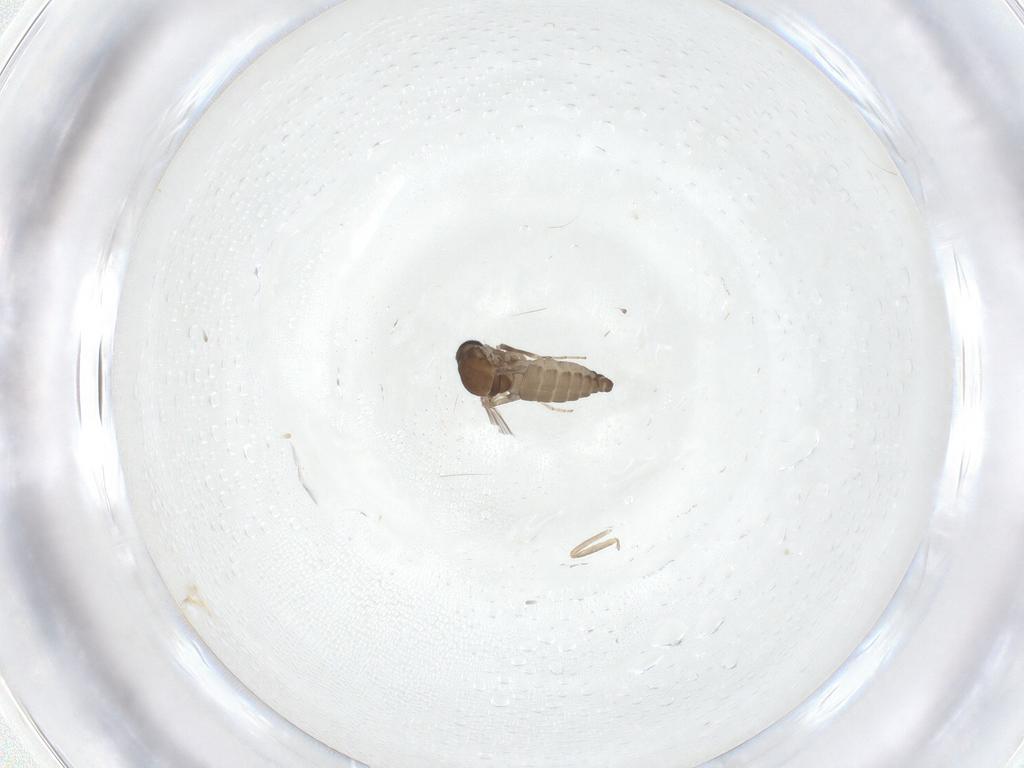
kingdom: Animalia
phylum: Arthropoda
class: Insecta
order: Diptera
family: Ceratopogonidae
